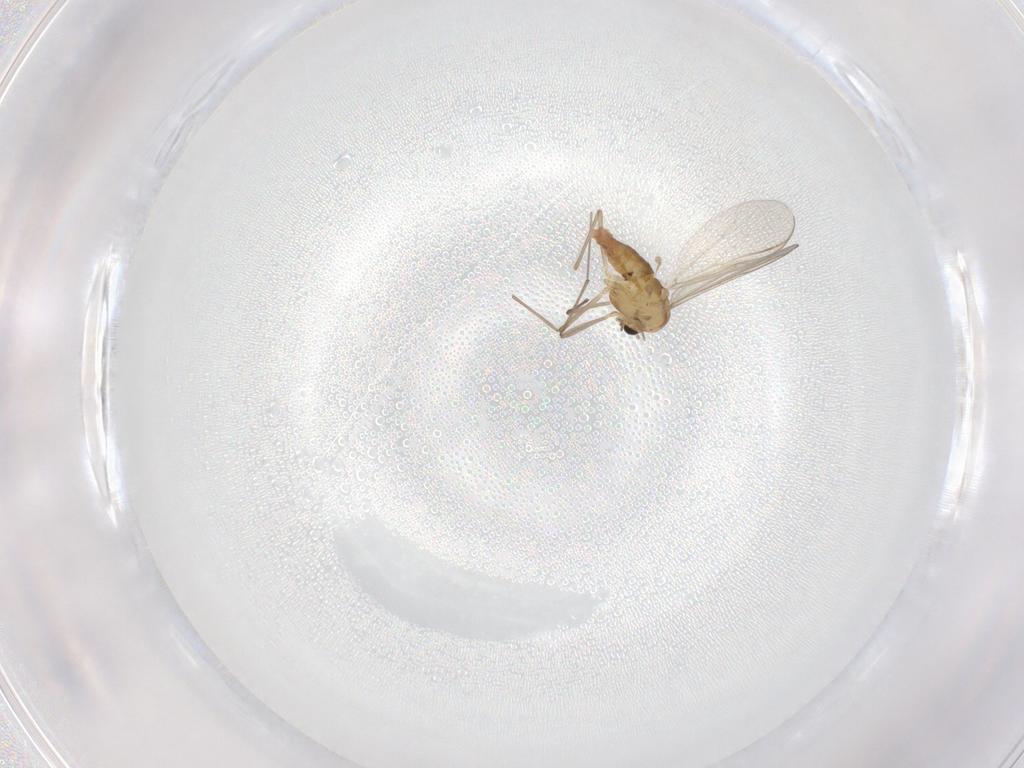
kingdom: Animalia
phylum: Arthropoda
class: Insecta
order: Diptera
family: Chironomidae
